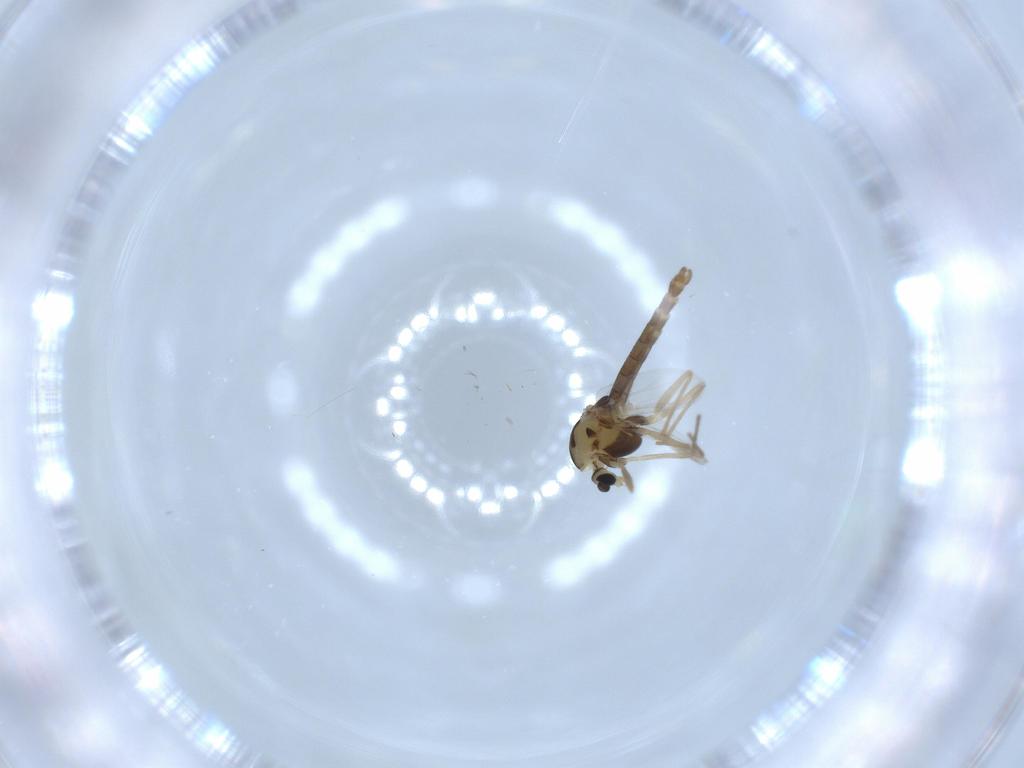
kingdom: Animalia
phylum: Arthropoda
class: Insecta
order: Diptera
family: Chironomidae
